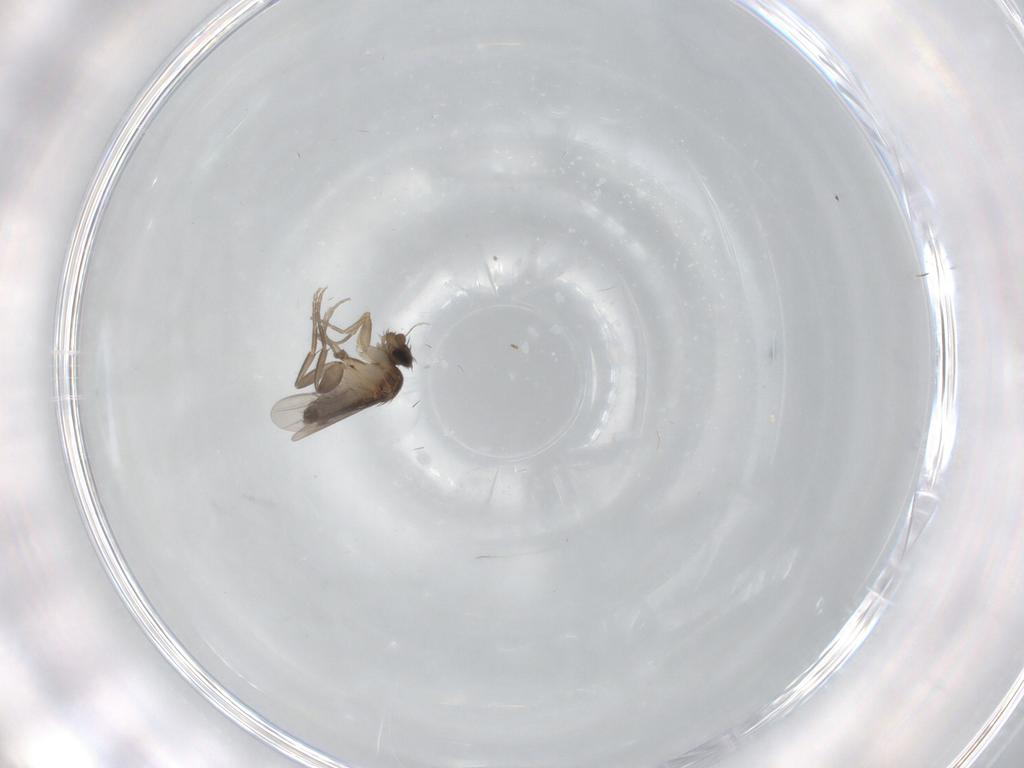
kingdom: Animalia
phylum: Arthropoda
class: Insecta
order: Diptera
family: Phoridae
